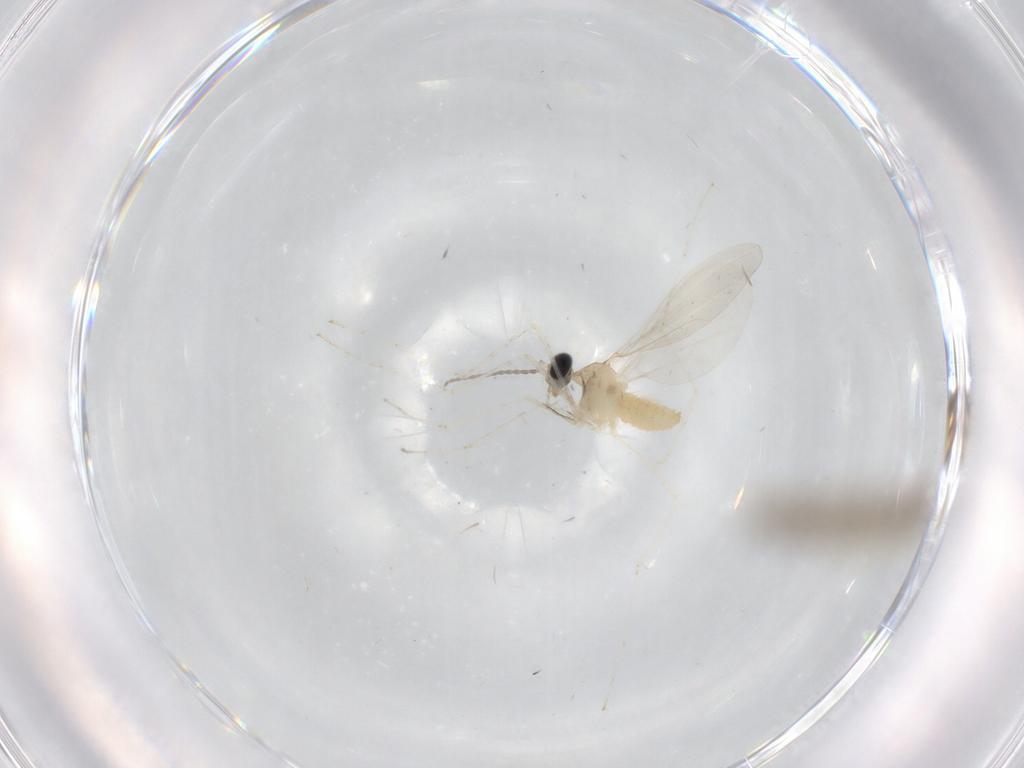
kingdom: Animalia
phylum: Arthropoda
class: Insecta
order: Diptera
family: Cecidomyiidae
